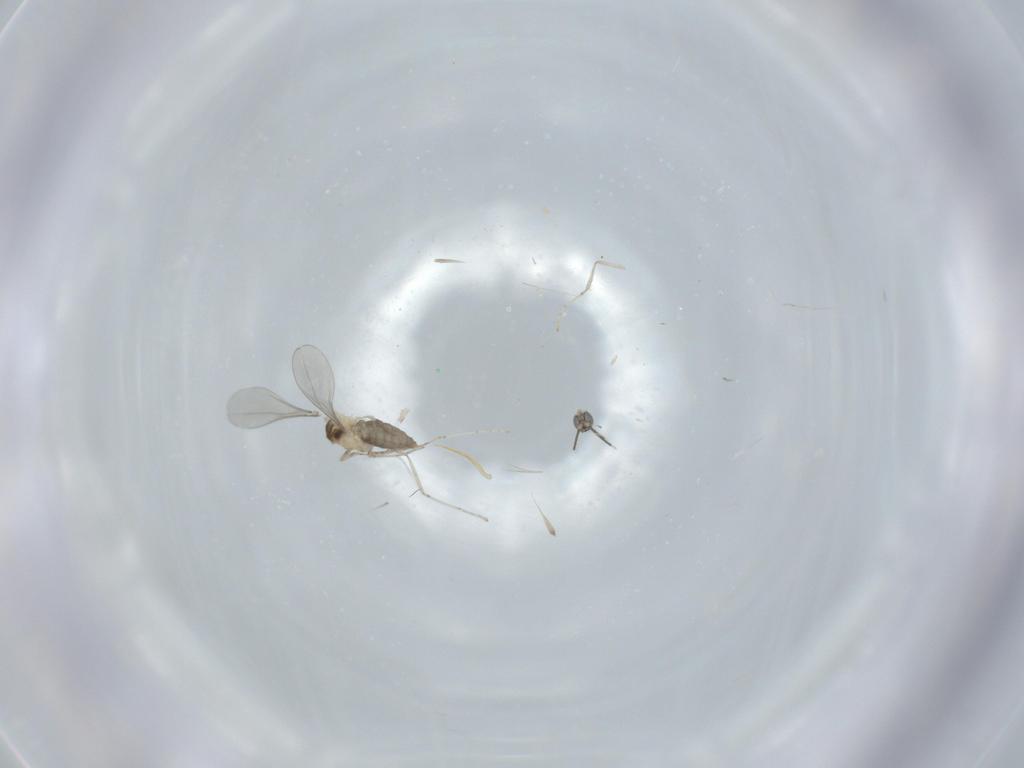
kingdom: Animalia
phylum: Arthropoda
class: Insecta
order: Diptera
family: Cecidomyiidae
